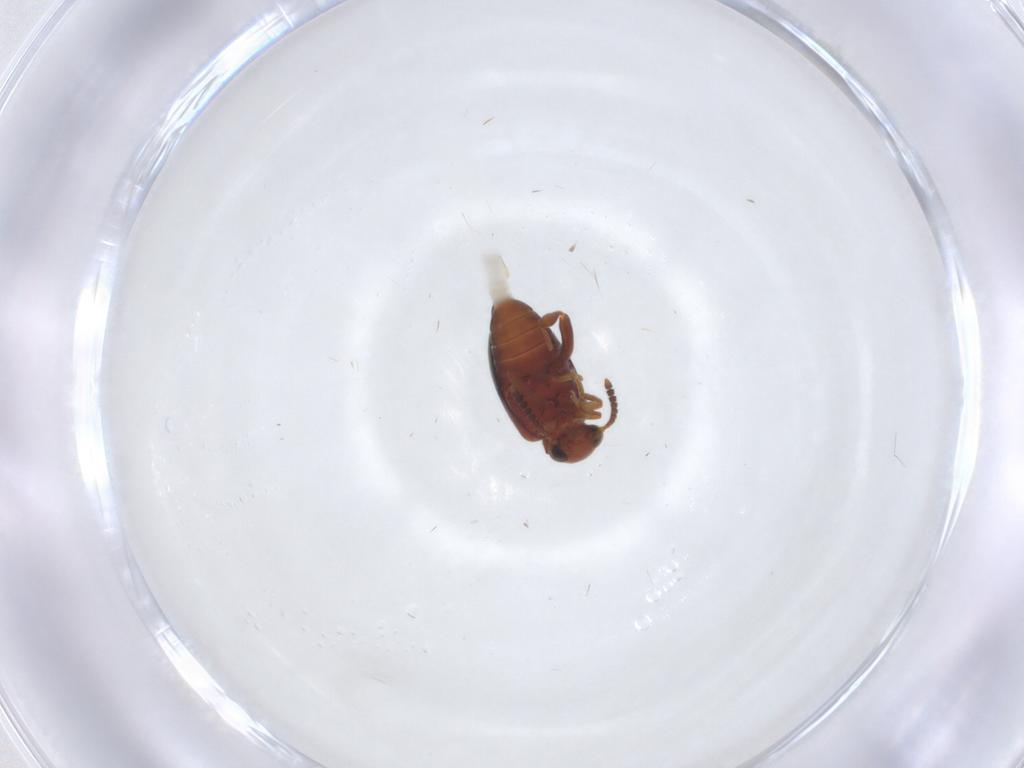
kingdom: Animalia
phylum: Arthropoda
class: Insecta
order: Coleoptera
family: Aderidae
